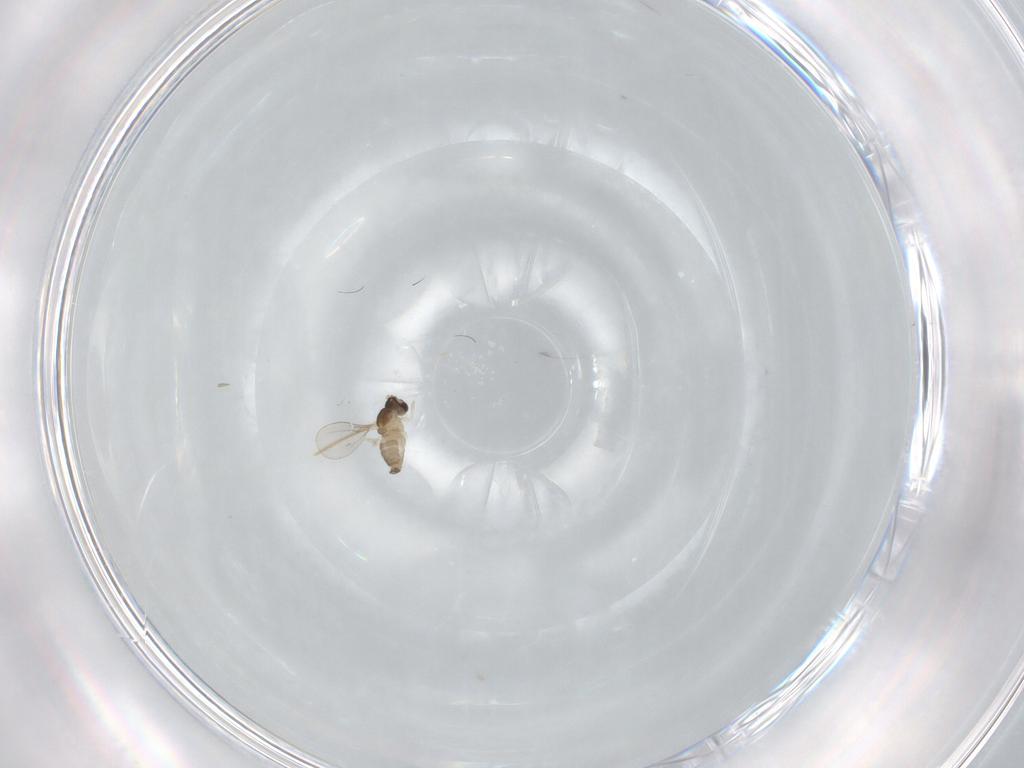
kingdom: Animalia
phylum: Arthropoda
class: Insecta
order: Diptera
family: Cecidomyiidae
